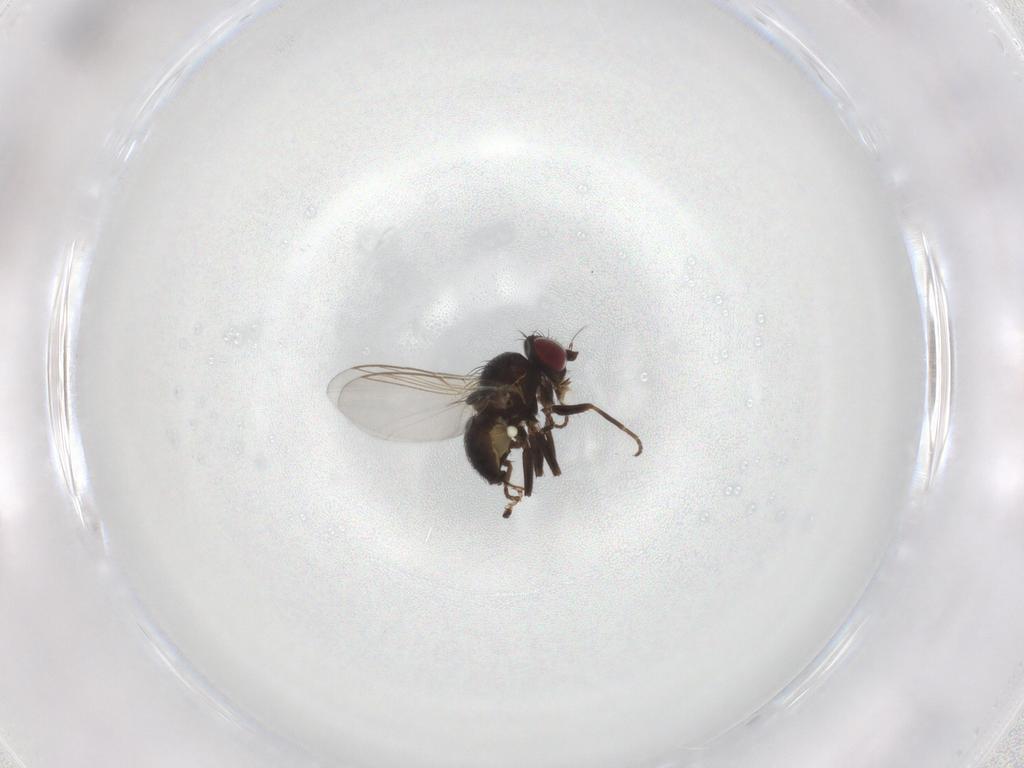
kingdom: Animalia
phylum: Arthropoda
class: Insecta
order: Diptera
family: Agromyzidae
